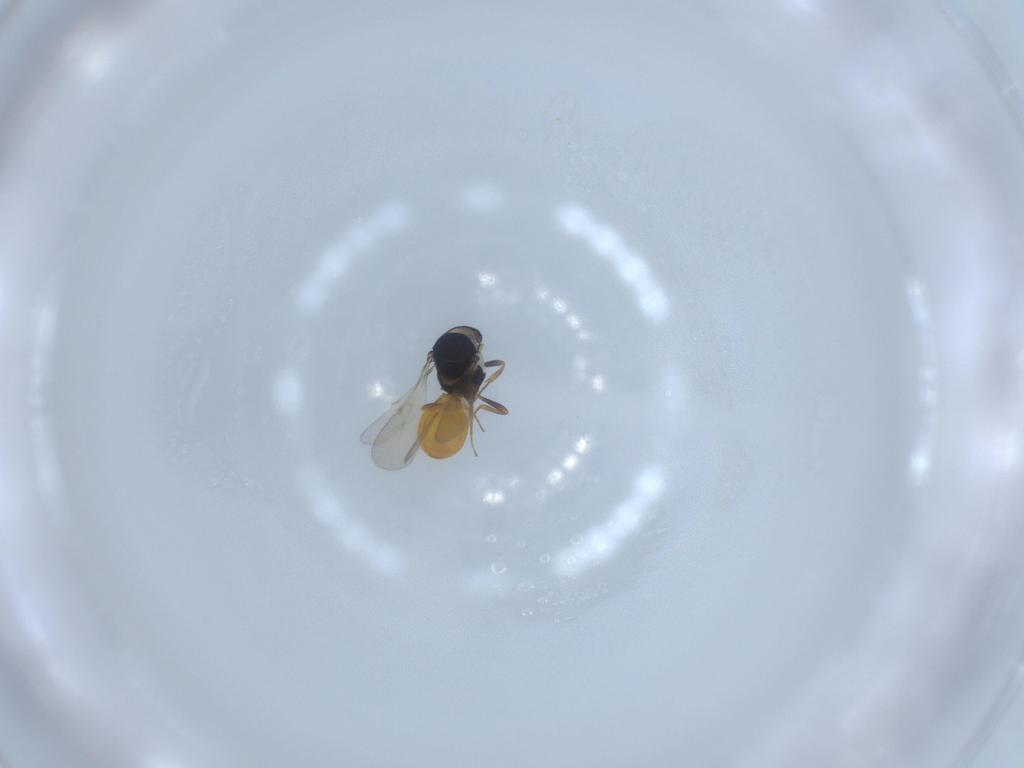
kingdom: Animalia
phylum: Arthropoda
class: Insecta
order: Hymenoptera
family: Scelionidae
